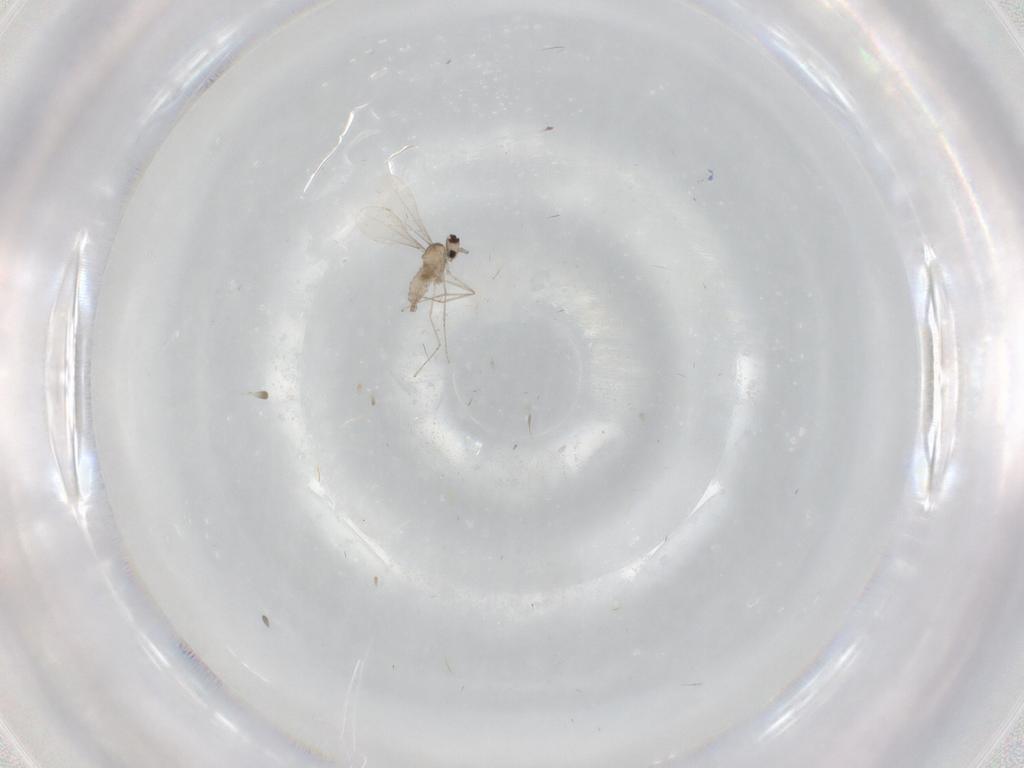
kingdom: Animalia
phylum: Arthropoda
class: Insecta
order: Diptera
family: Cecidomyiidae
